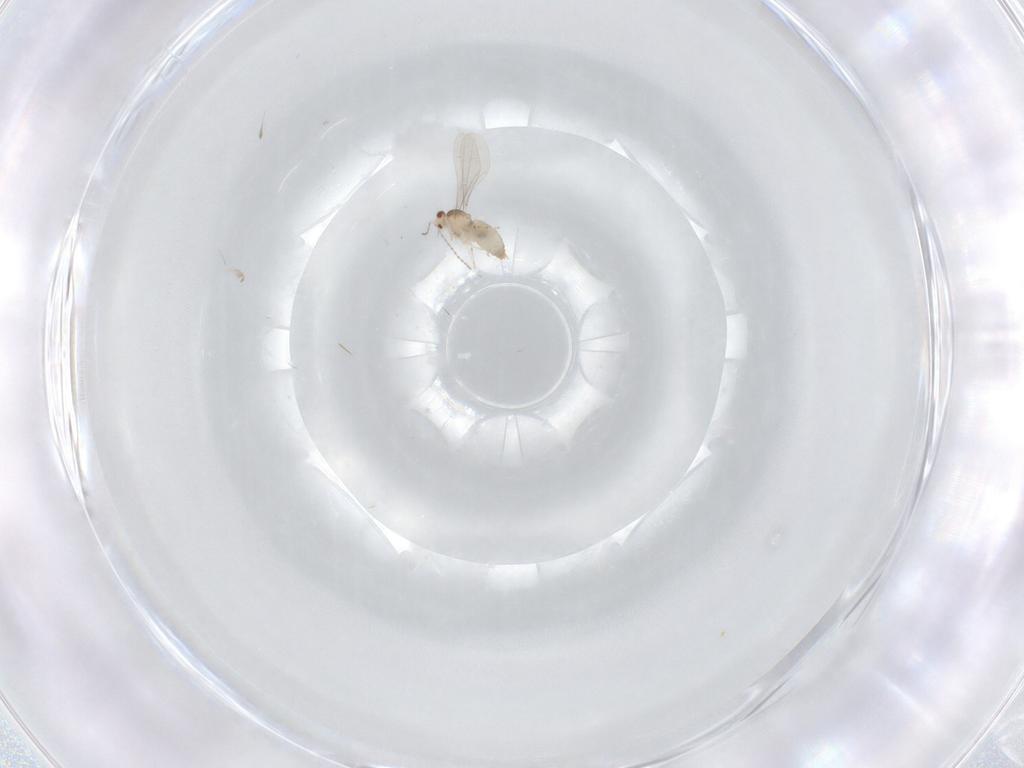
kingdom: Animalia
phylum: Arthropoda
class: Insecta
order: Diptera
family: Cecidomyiidae
